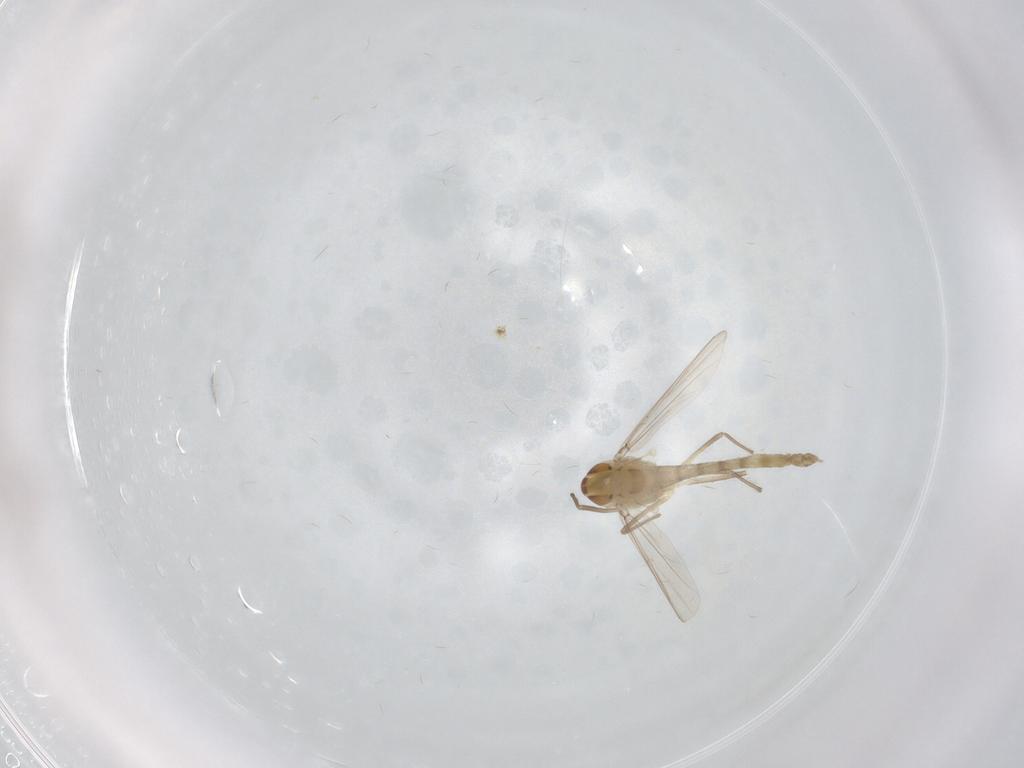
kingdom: Animalia
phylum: Arthropoda
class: Insecta
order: Diptera
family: Chironomidae
